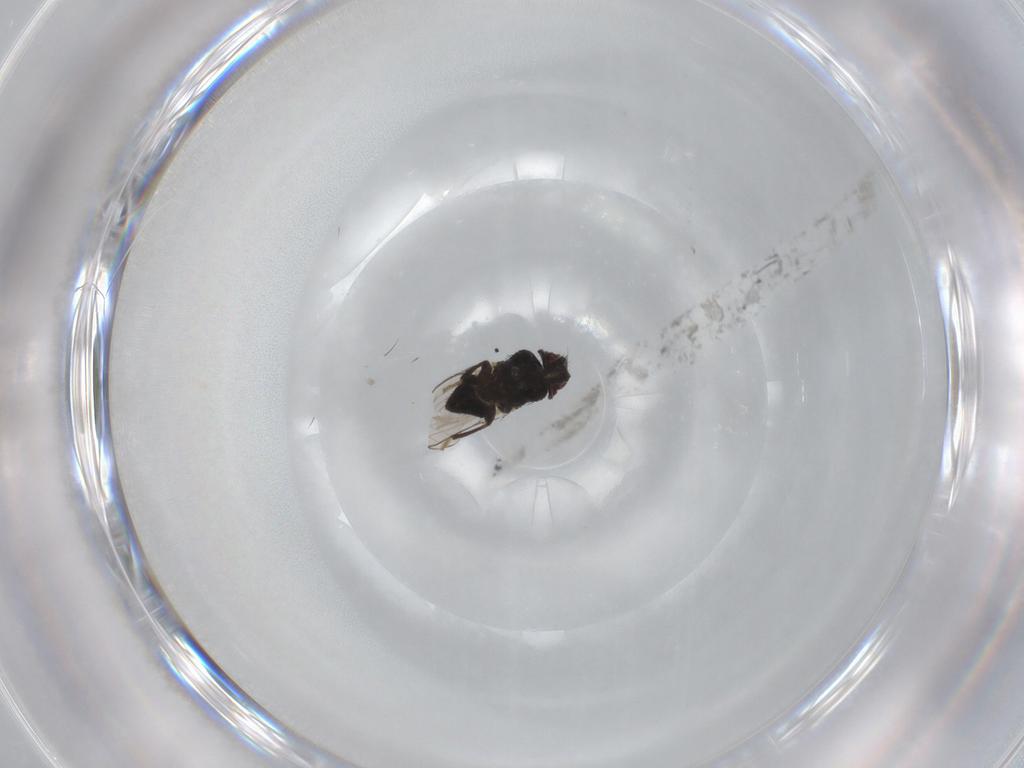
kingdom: Animalia
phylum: Arthropoda
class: Insecta
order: Diptera
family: Milichiidae
